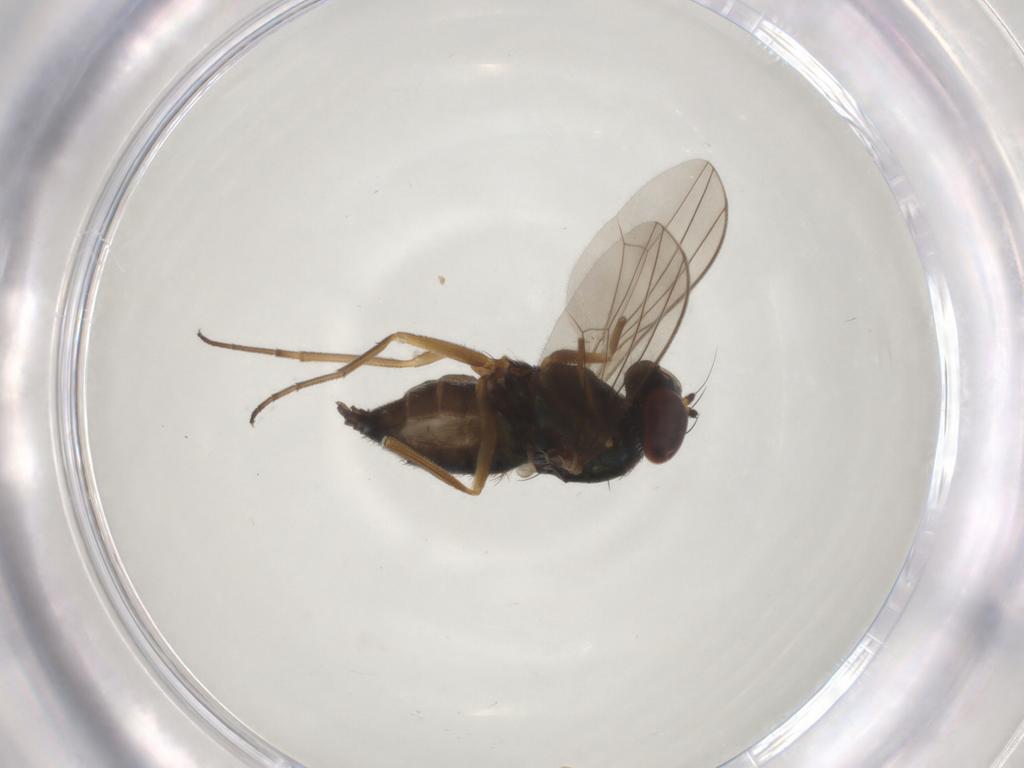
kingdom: Animalia
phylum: Arthropoda
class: Insecta
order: Diptera
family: Dolichopodidae
